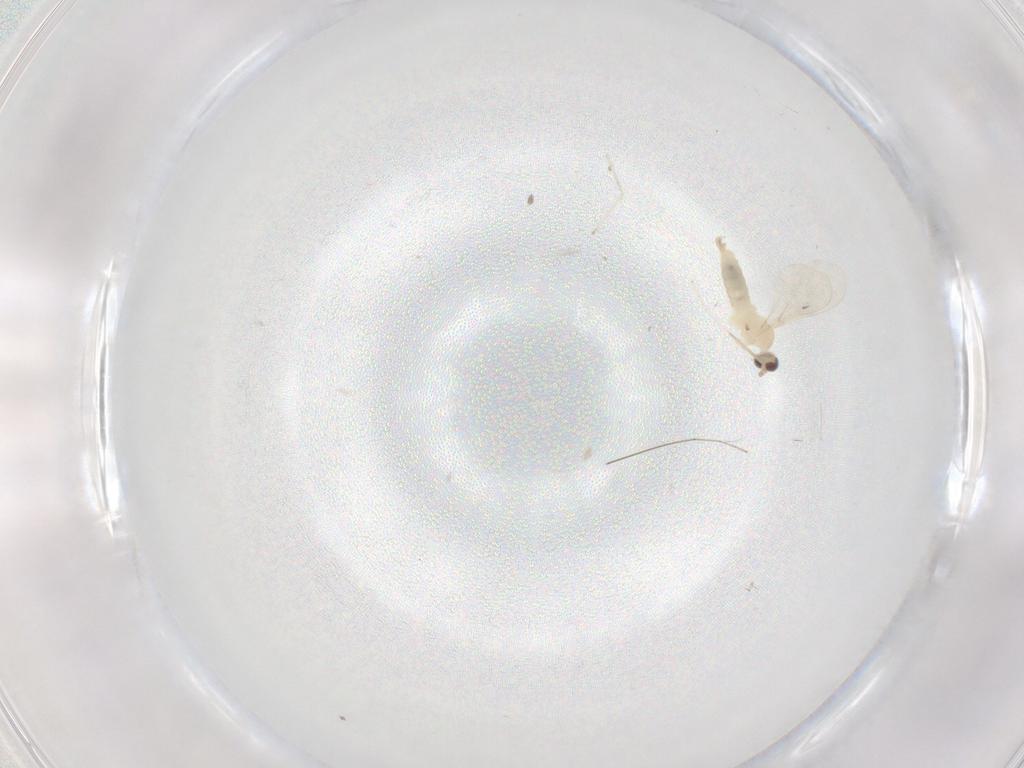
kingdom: Animalia
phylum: Arthropoda
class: Insecta
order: Diptera
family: Cecidomyiidae
